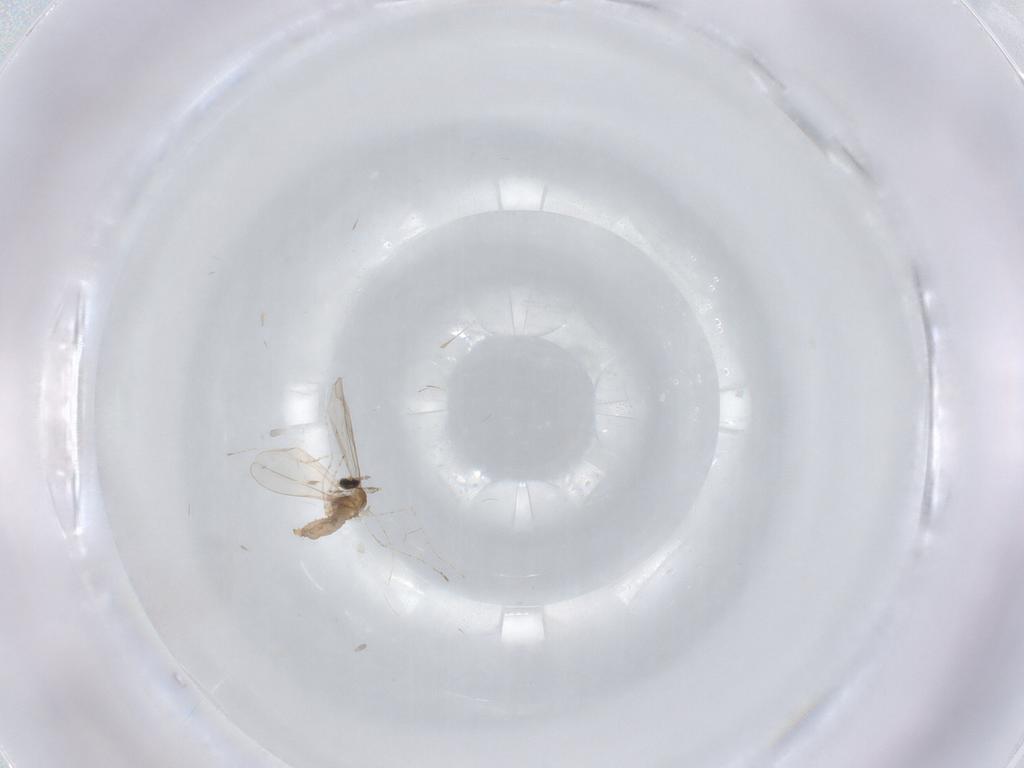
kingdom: Animalia
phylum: Arthropoda
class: Insecta
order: Diptera
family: Cecidomyiidae
